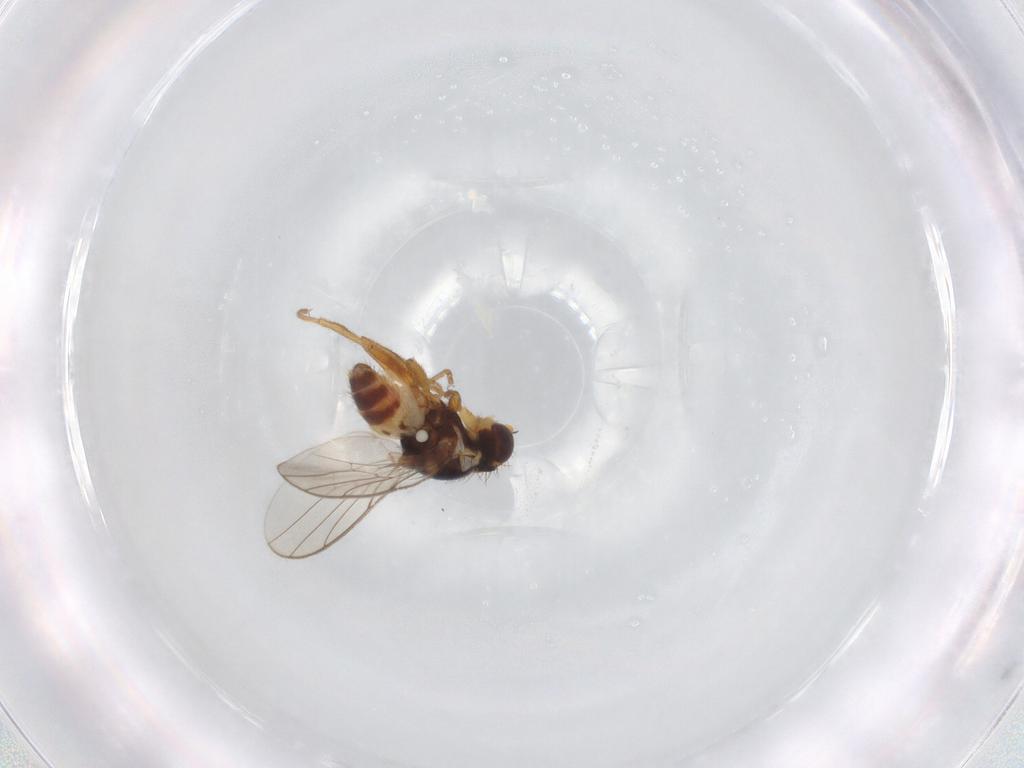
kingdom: Animalia
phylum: Arthropoda
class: Insecta
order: Diptera
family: Chloropidae
